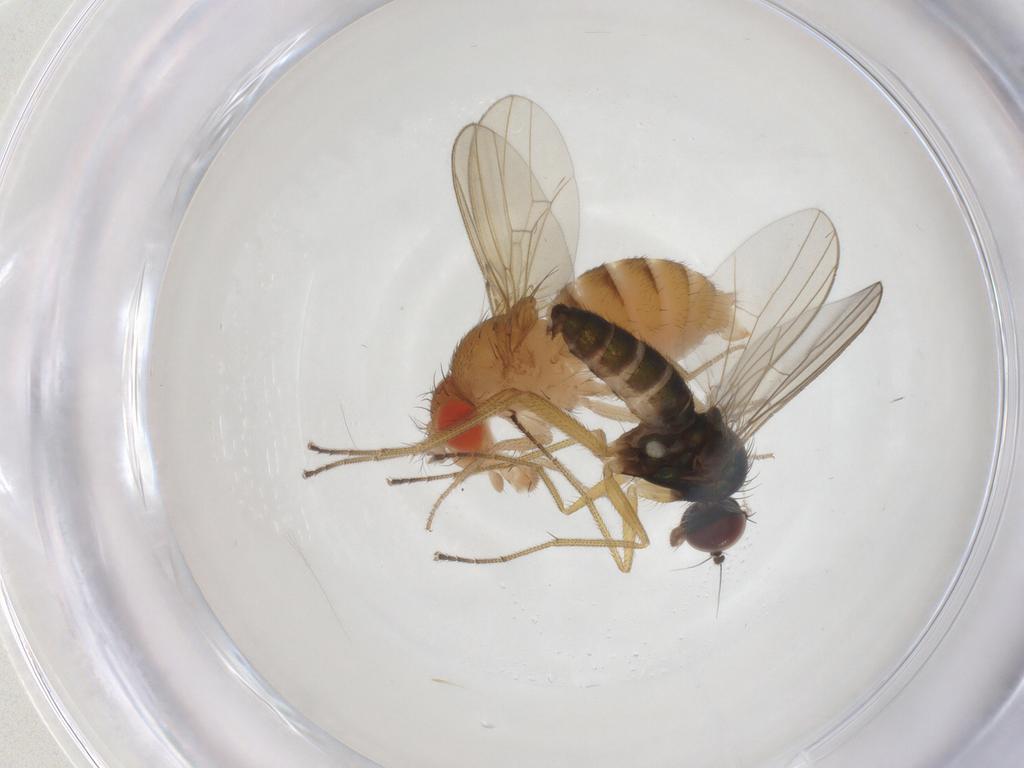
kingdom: Animalia
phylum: Arthropoda
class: Insecta
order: Diptera
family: Drosophilidae
